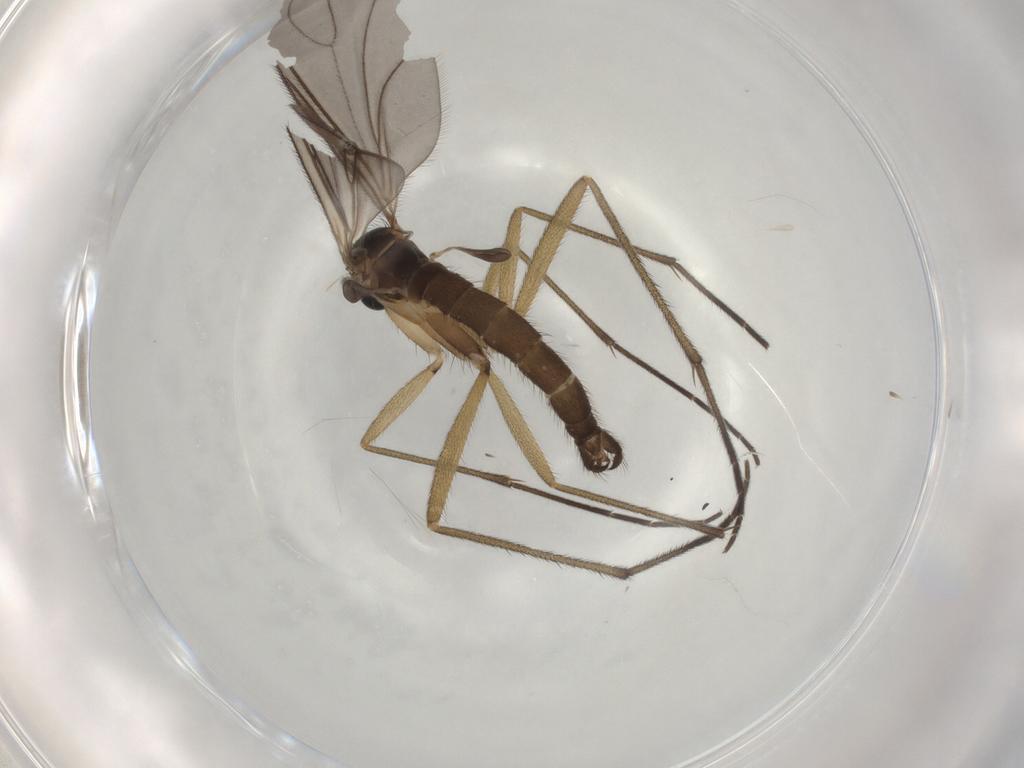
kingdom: Animalia
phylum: Arthropoda
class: Insecta
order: Diptera
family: Sciaridae
